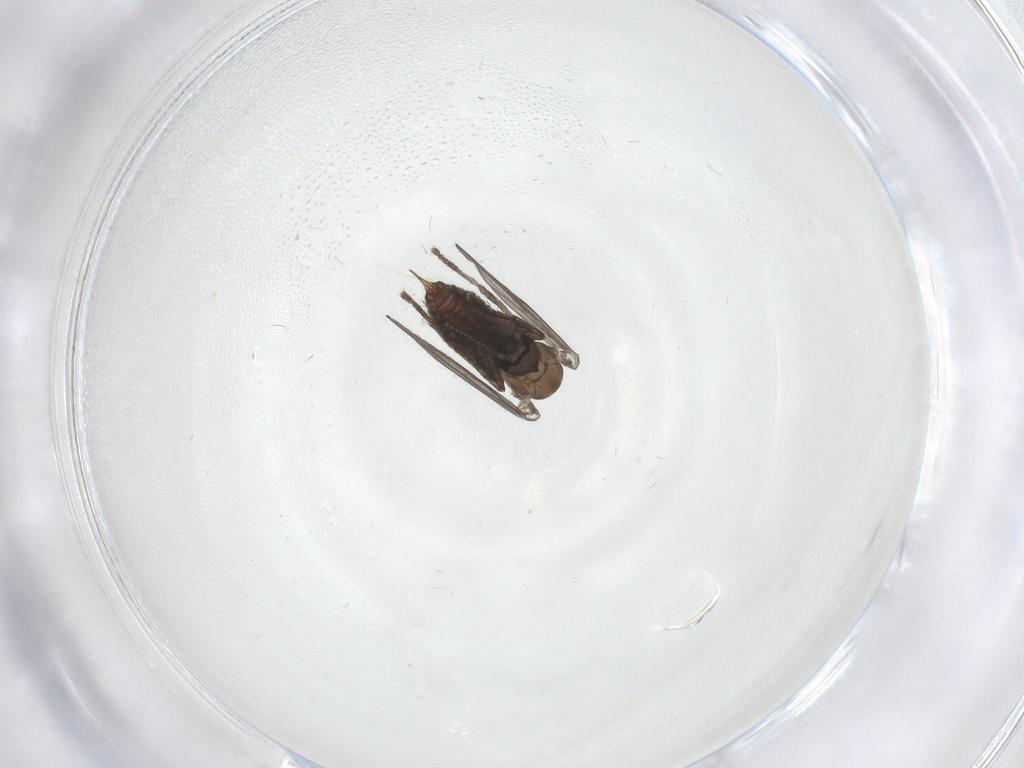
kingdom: Animalia
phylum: Arthropoda
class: Insecta
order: Diptera
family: Psychodidae
